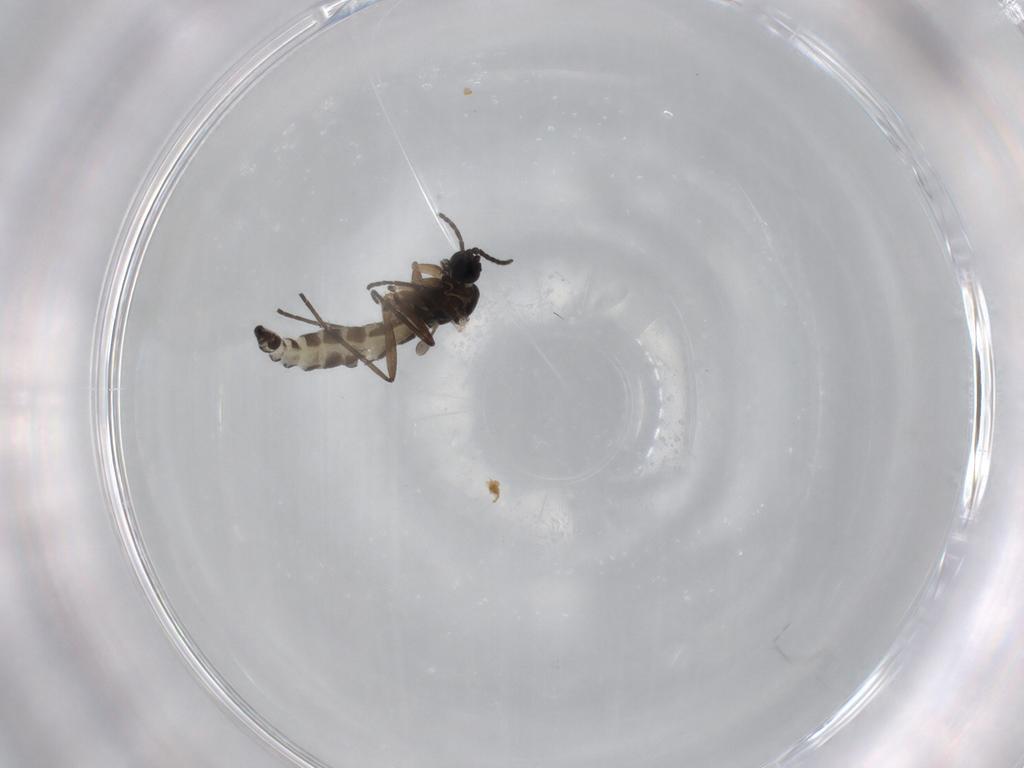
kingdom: Animalia
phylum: Arthropoda
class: Insecta
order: Diptera
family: Sciaridae
